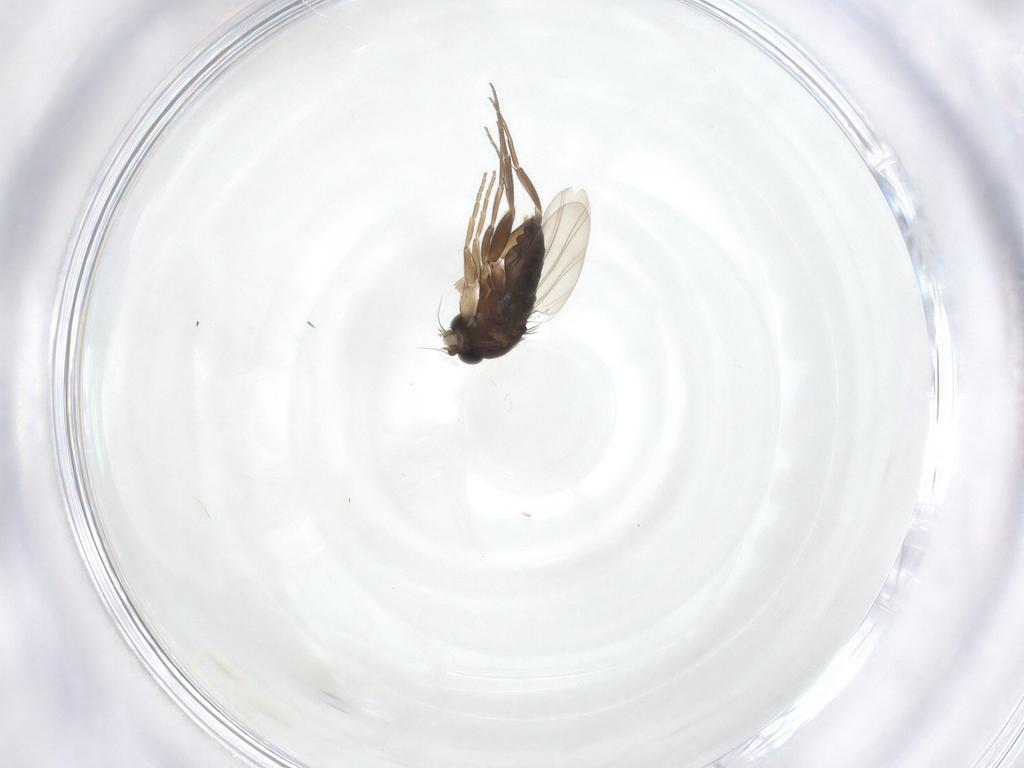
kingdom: Animalia
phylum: Arthropoda
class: Insecta
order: Diptera
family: Phoridae
